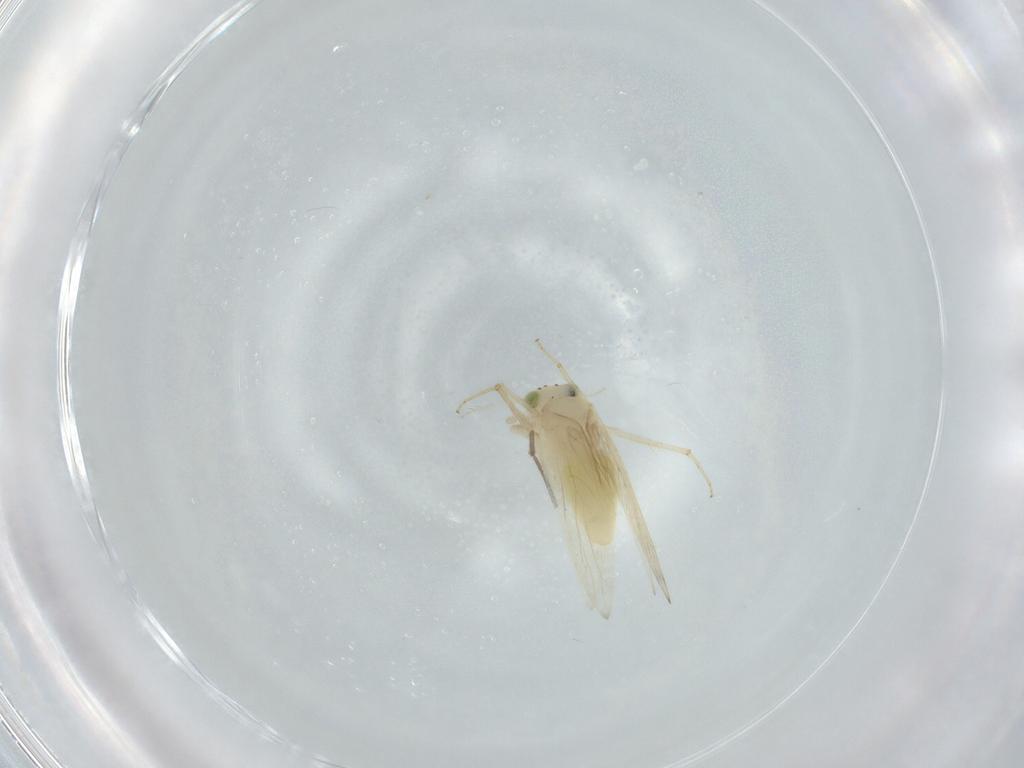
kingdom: Animalia
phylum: Arthropoda
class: Insecta
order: Psocodea
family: Lepidopsocidae
